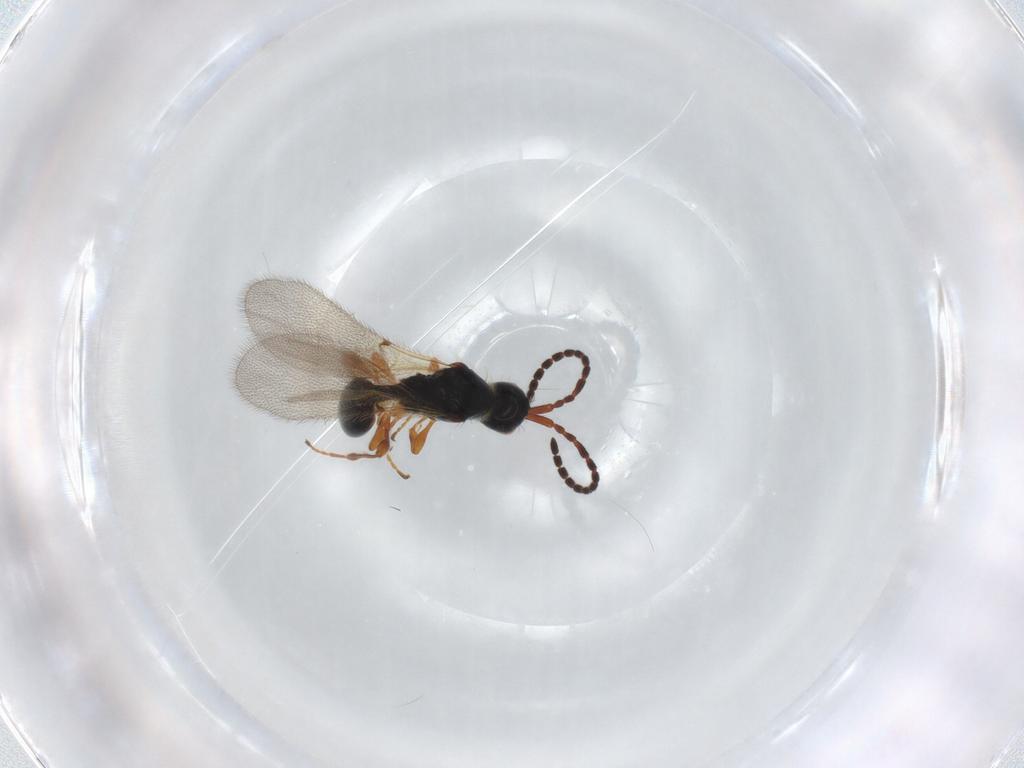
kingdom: Animalia
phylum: Arthropoda
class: Insecta
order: Hymenoptera
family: Diapriidae
